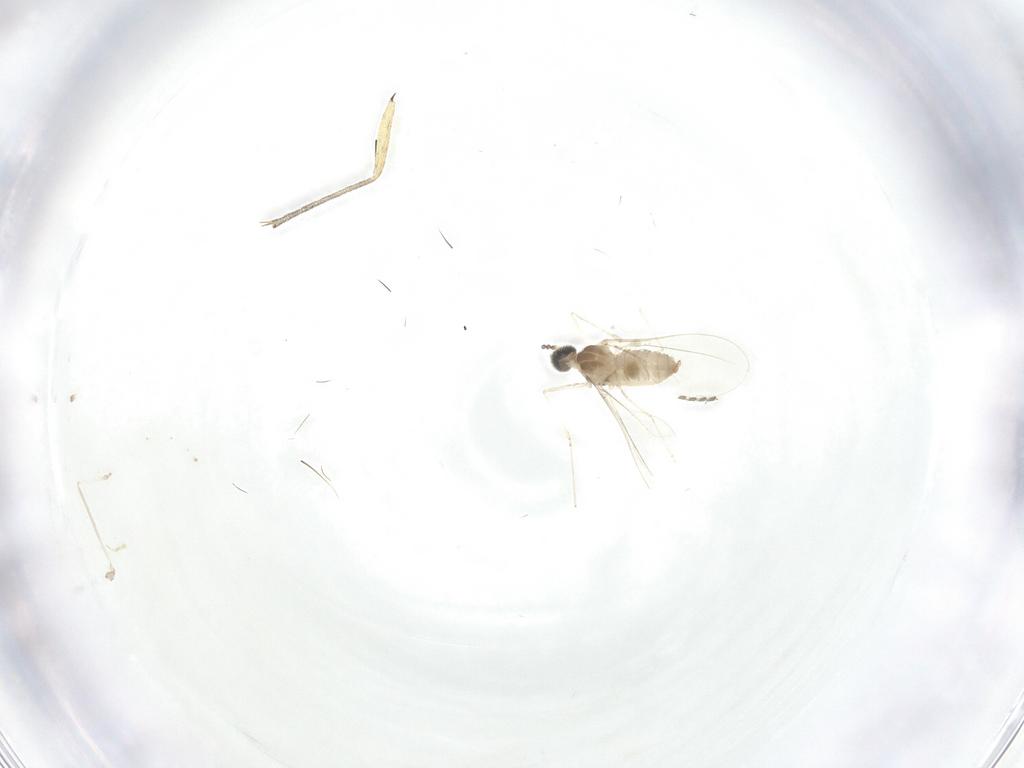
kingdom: Animalia
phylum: Arthropoda
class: Insecta
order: Diptera
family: Cecidomyiidae
